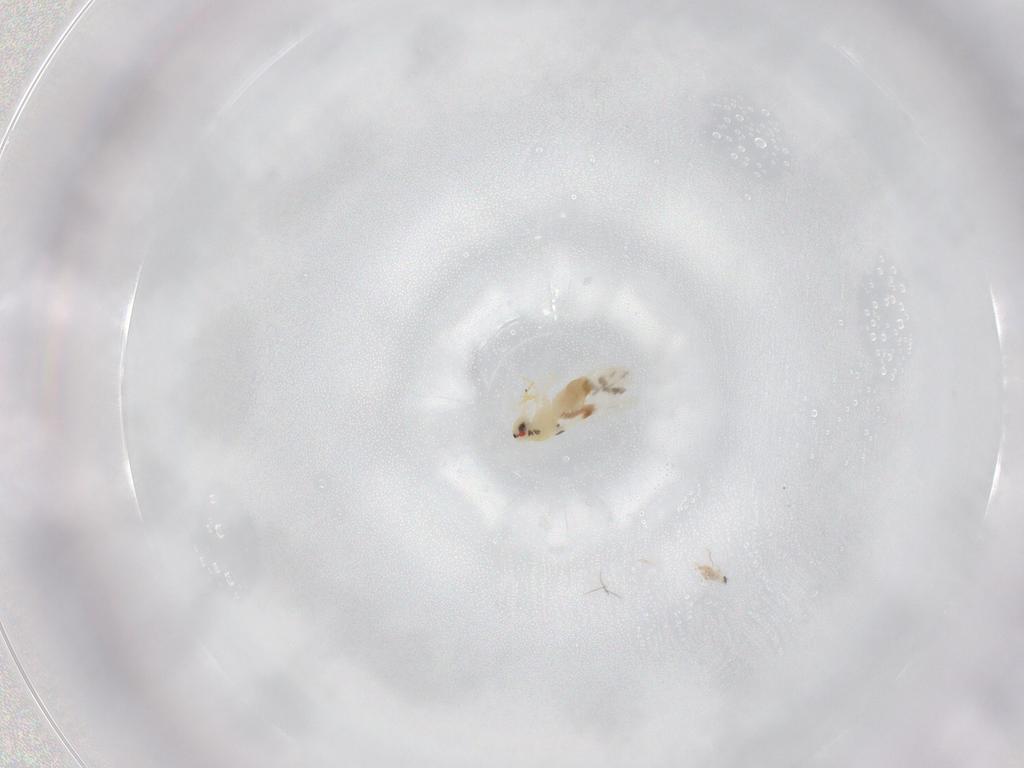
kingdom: Animalia
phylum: Arthropoda
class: Insecta
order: Hemiptera
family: Aleyrodidae
